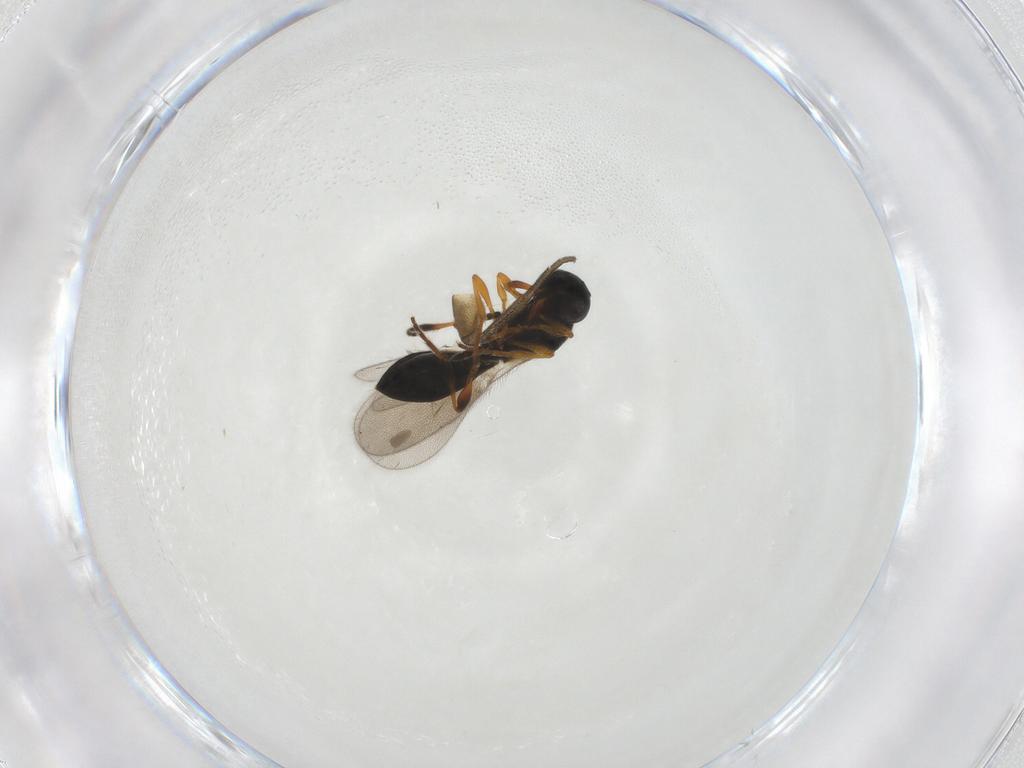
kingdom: Animalia
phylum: Arthropoda
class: Insecta
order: Hymenoptera
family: Platygastridae
